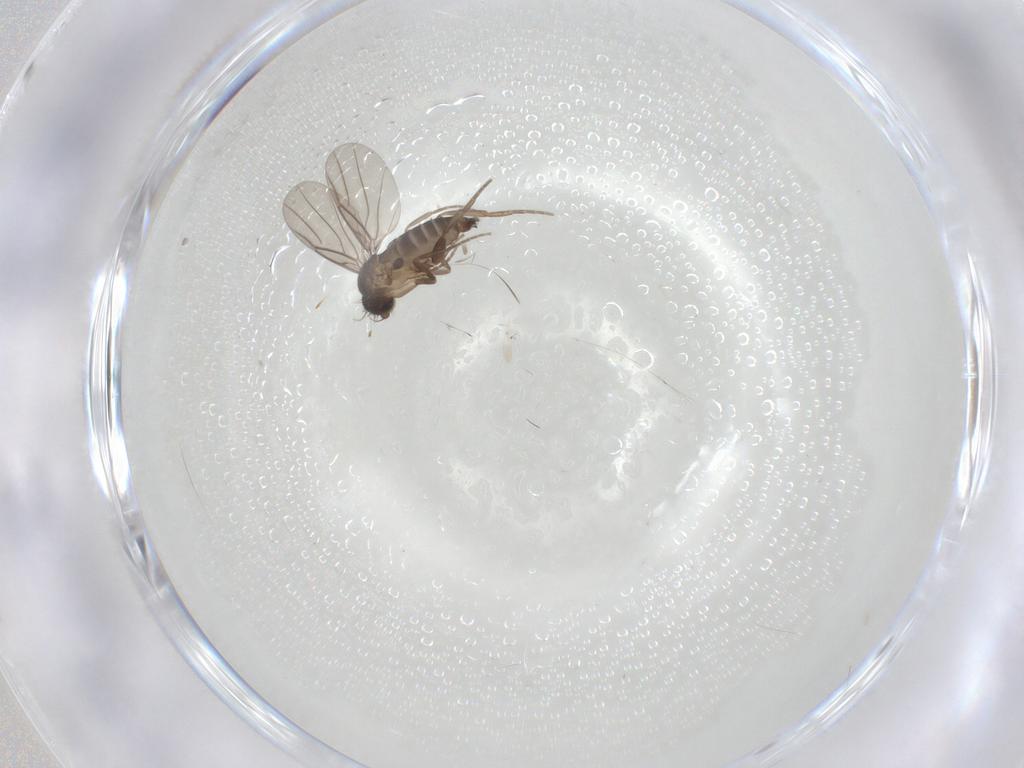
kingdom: Animalia
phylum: Arthropoda
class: Insecta
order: Diptera
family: Phoridae
